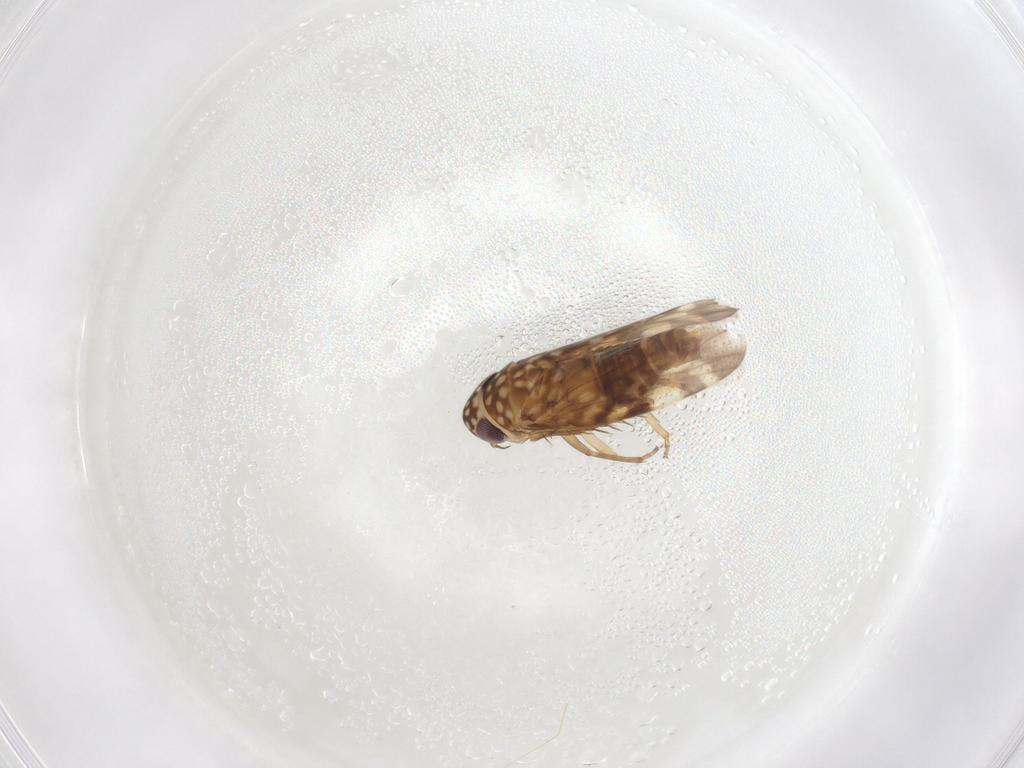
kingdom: Animalia
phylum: Arthropoda
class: Insecta
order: Hemiptera
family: Cicadellidae
